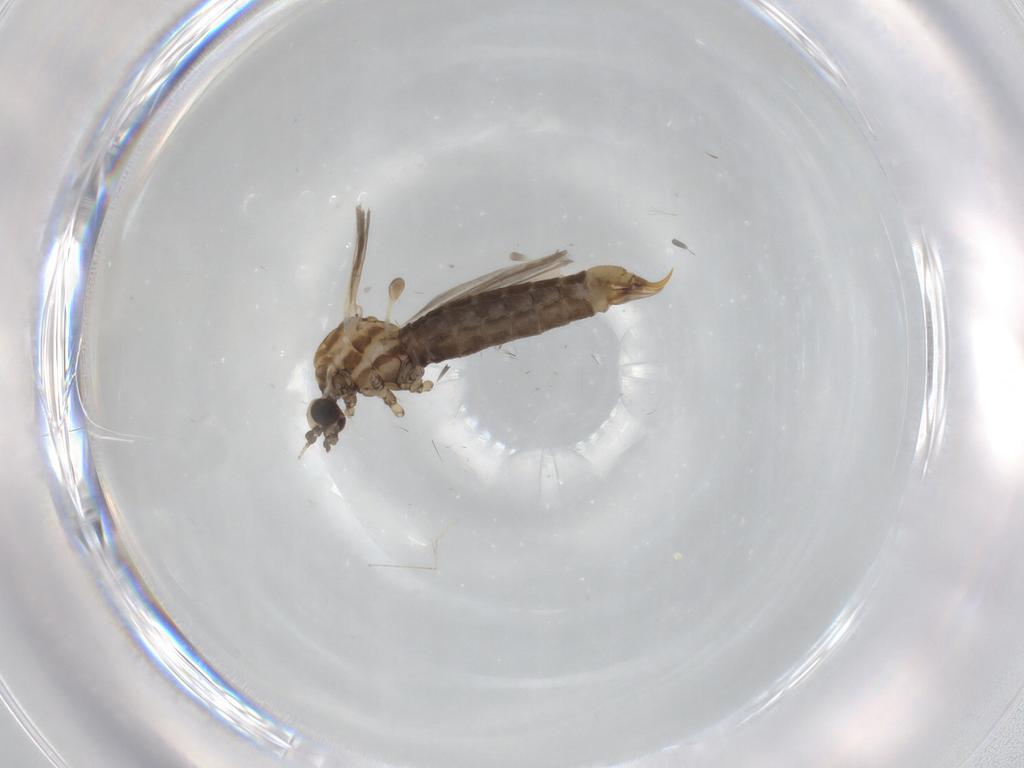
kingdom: Animalia
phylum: Arthropoda
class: Insecta
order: Diptera
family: Limoniidae
